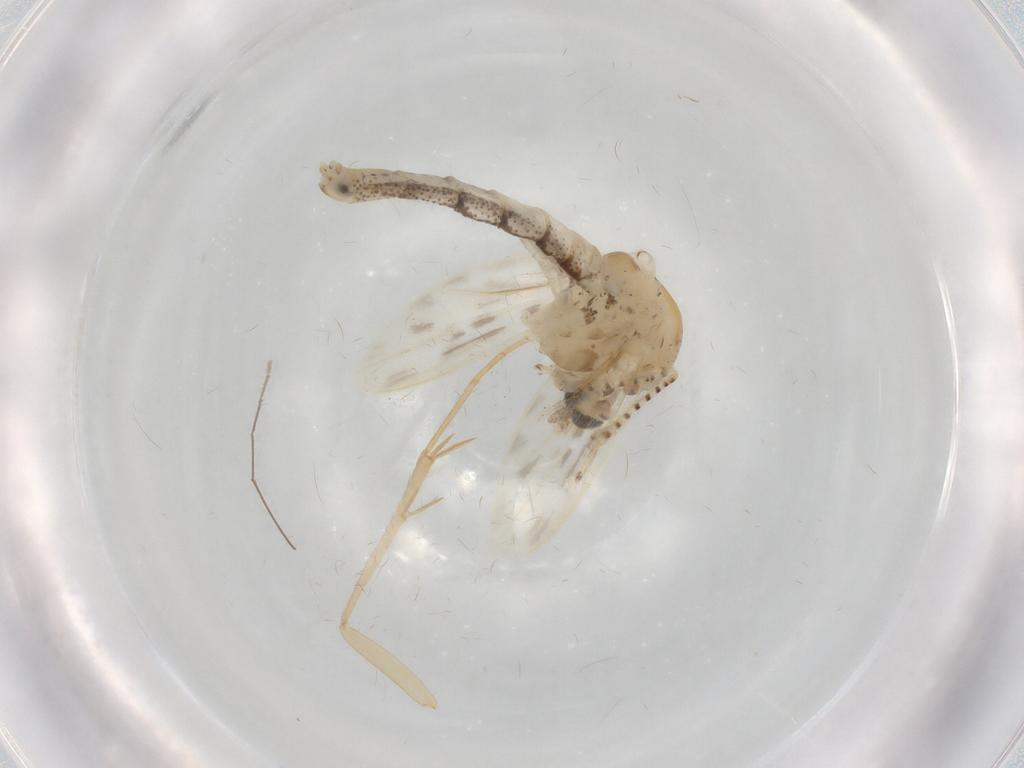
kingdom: Animalia
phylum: Arthropoda
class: Insecta
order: Diptera
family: Chaoboridae
